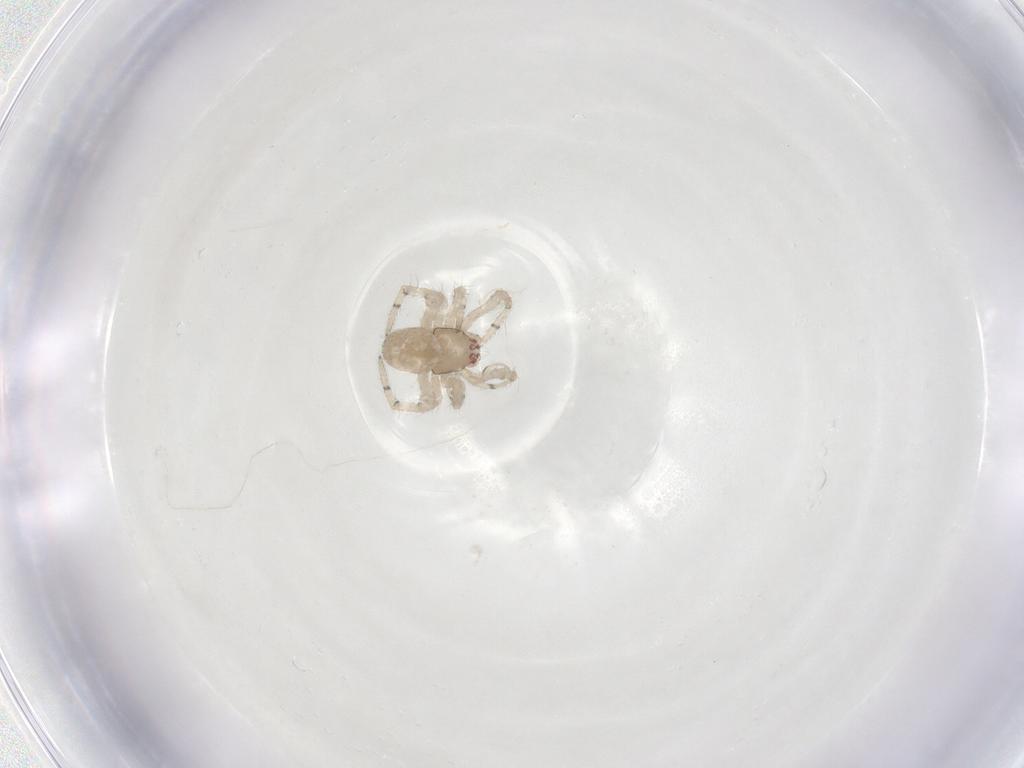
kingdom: Animalia
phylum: Arthropoda
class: Arachnida
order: Araneae
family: Theridiidae
